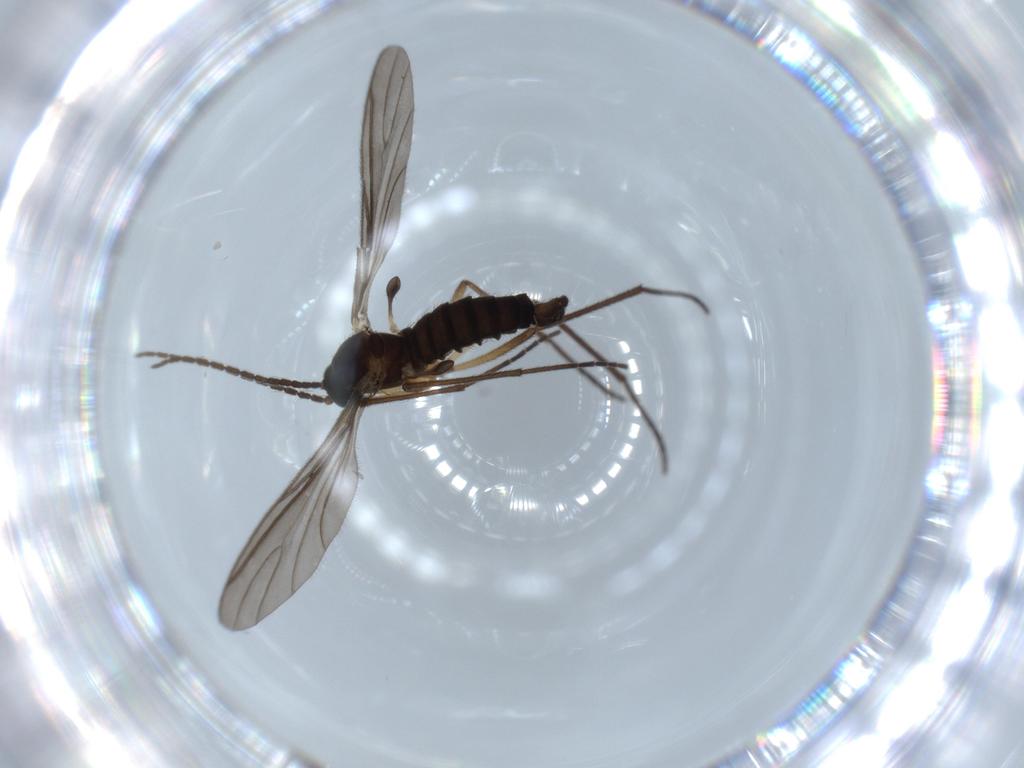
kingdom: Animalia
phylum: Arthropoda
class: Insecta
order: Diptera
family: Sciaridae
